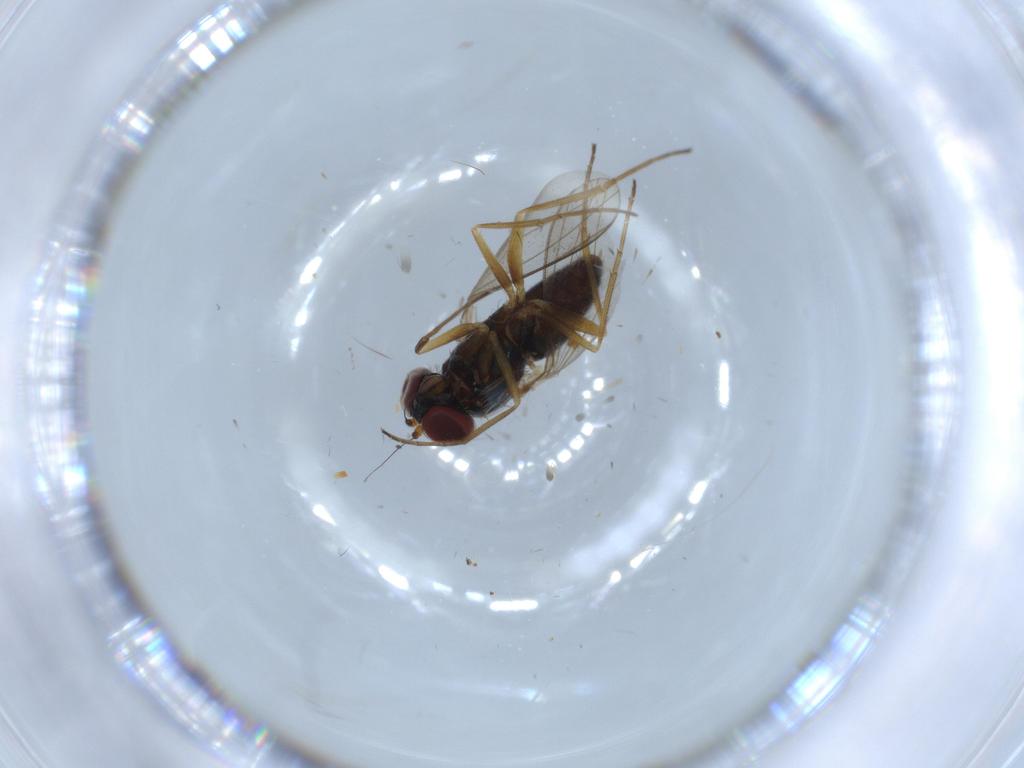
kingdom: Animalia
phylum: Arthropoda
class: Insecta
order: Diptera
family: Dolichopodidae
